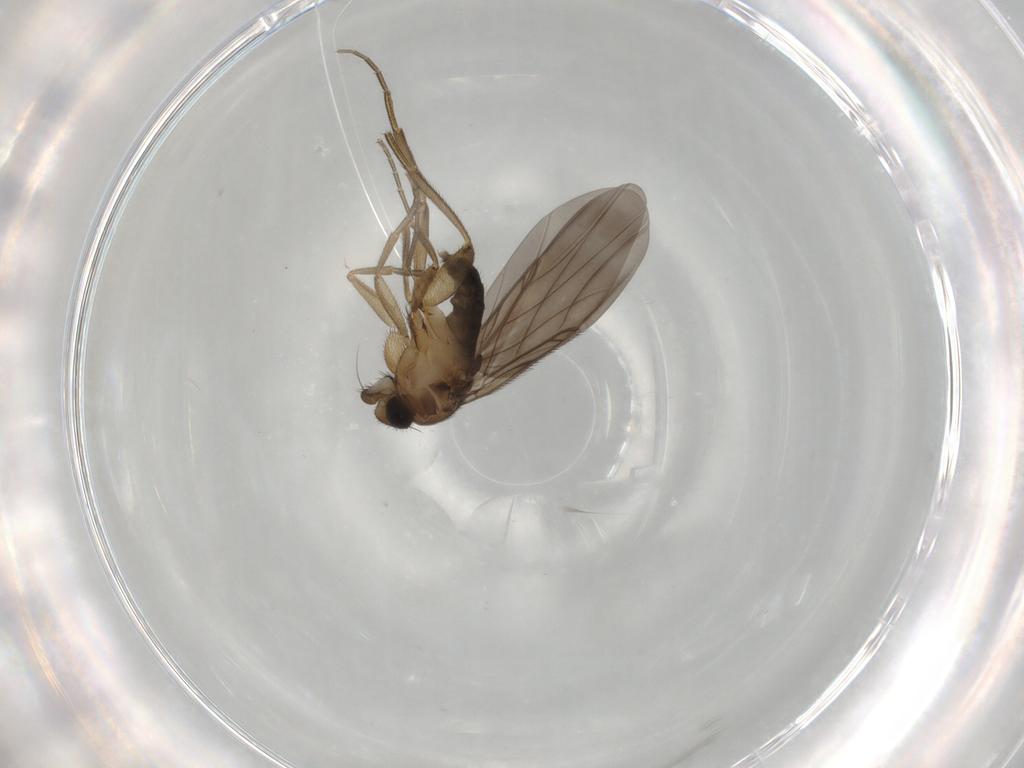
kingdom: Animalia
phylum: Arthropoda
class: Insecta
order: Diptera
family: Phoridae
